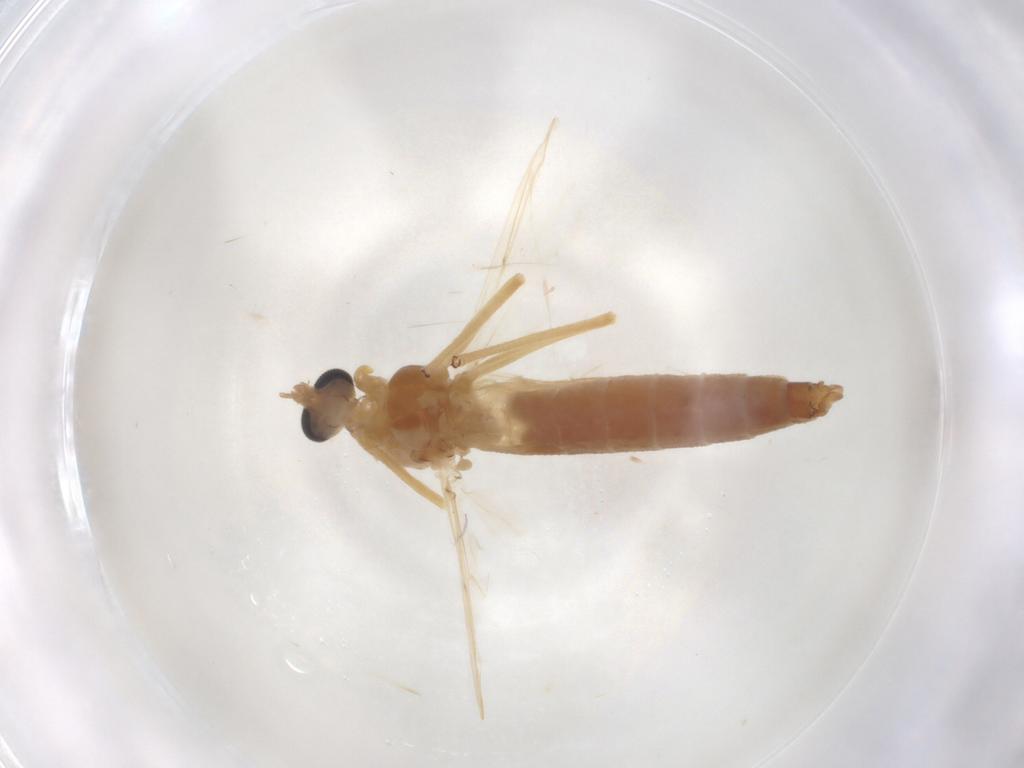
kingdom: Animalia
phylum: Arthropoda
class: Insecta
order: Diptera
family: Chironomidae
